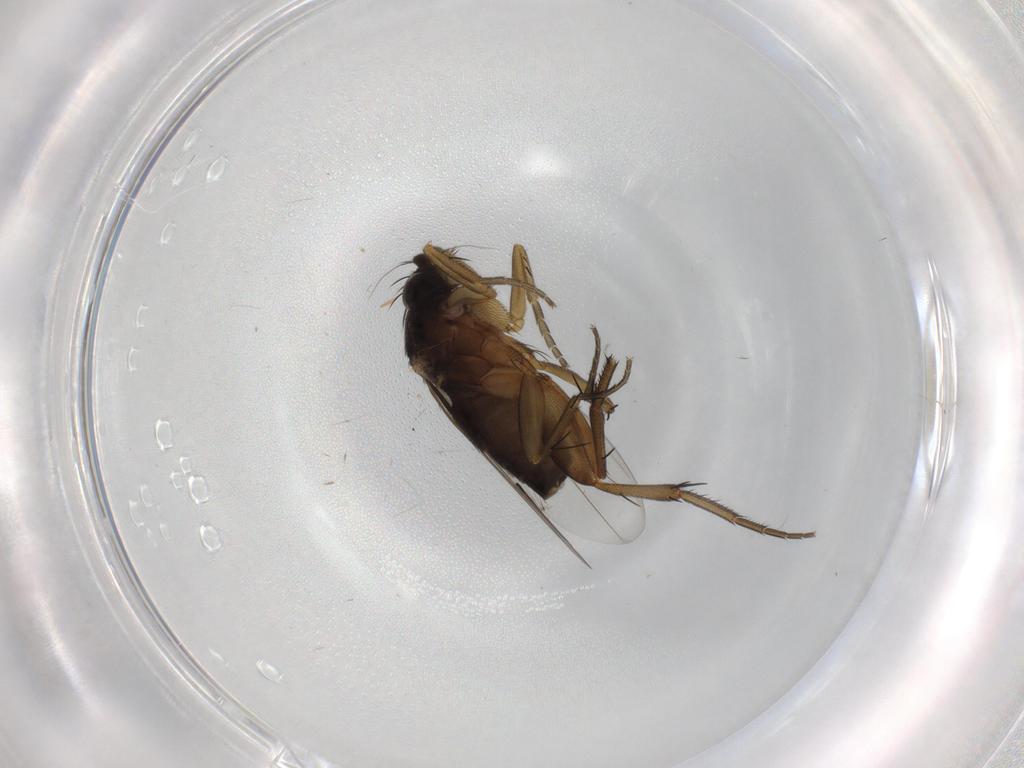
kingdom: Animalia
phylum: Arthropoda
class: Insecta
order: Diptera
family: Phoridae
